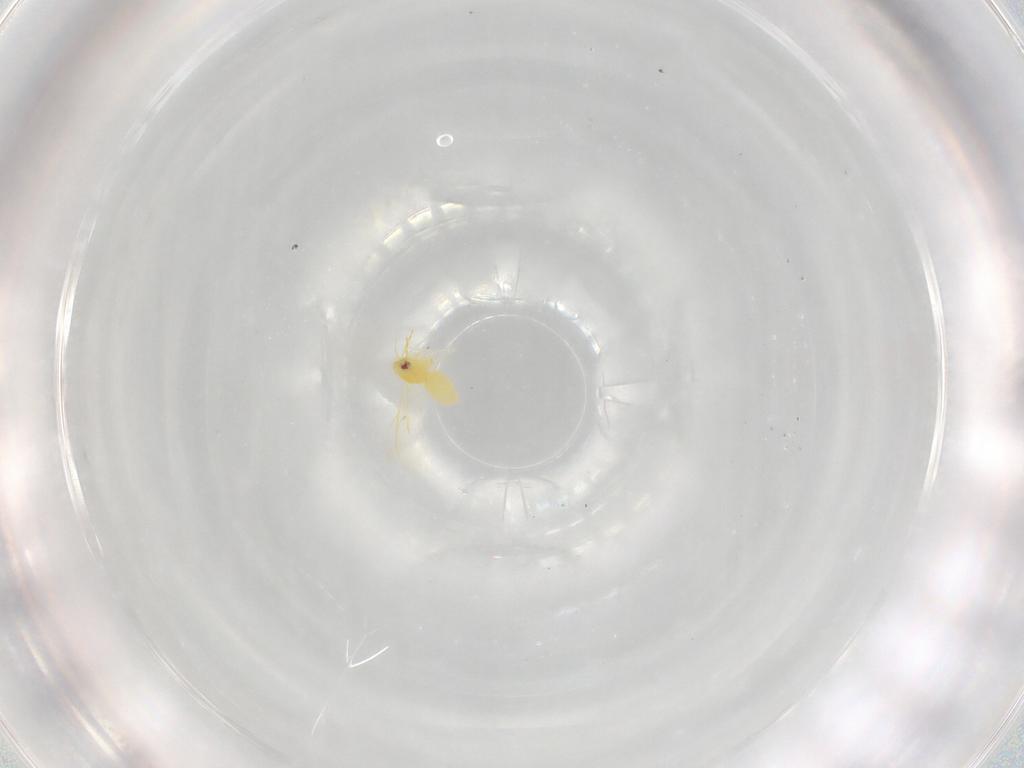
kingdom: Animalia
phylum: Arthropoda
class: Insecta
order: Hemiptera
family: Aleyrodidae
